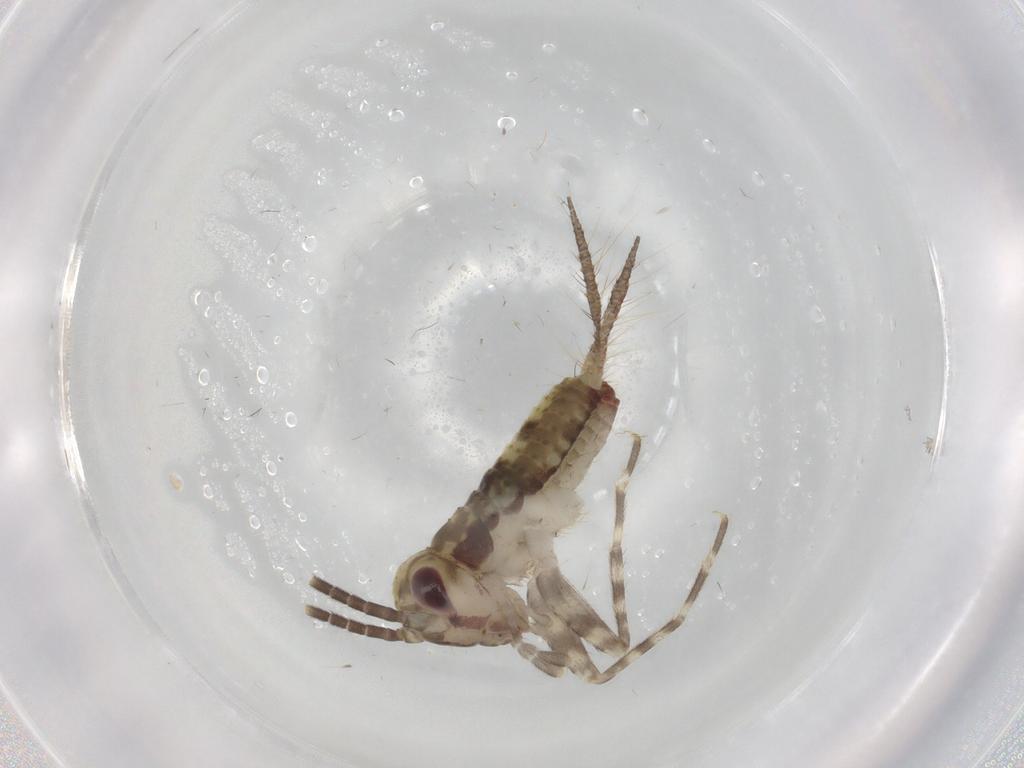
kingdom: Animalia
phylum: Arthropoda
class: Insecta
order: Orthoptera
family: Gryllidae
